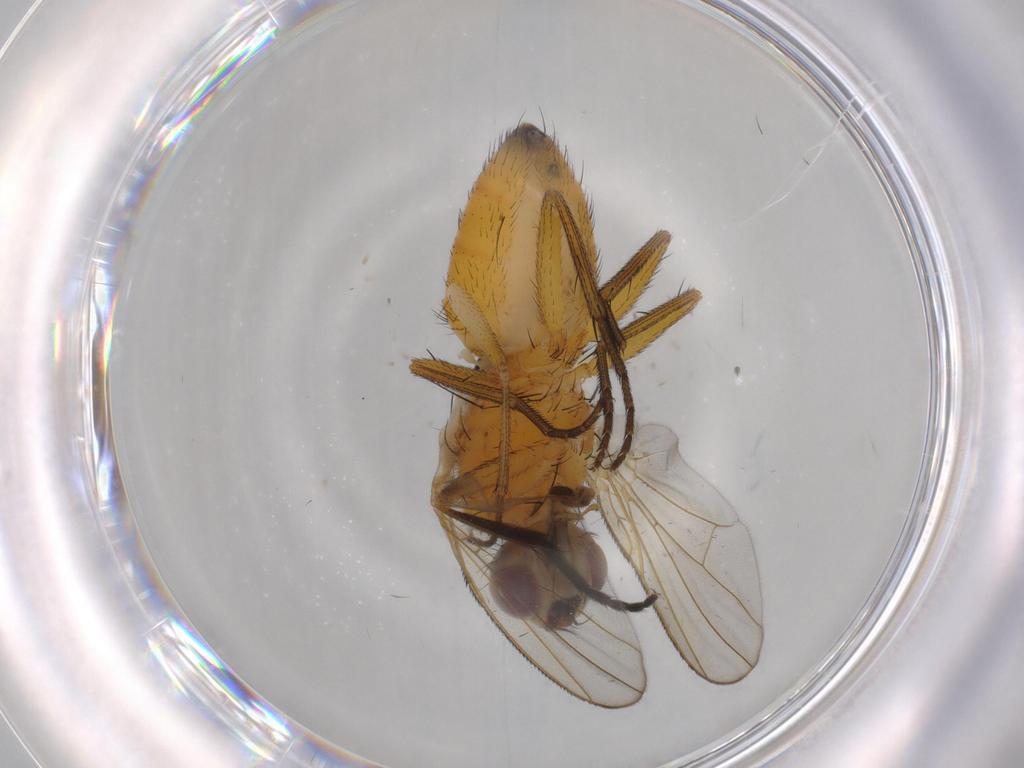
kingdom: Animalia
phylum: Arthropoda
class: Insecta
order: Diptera
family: Muscidae
